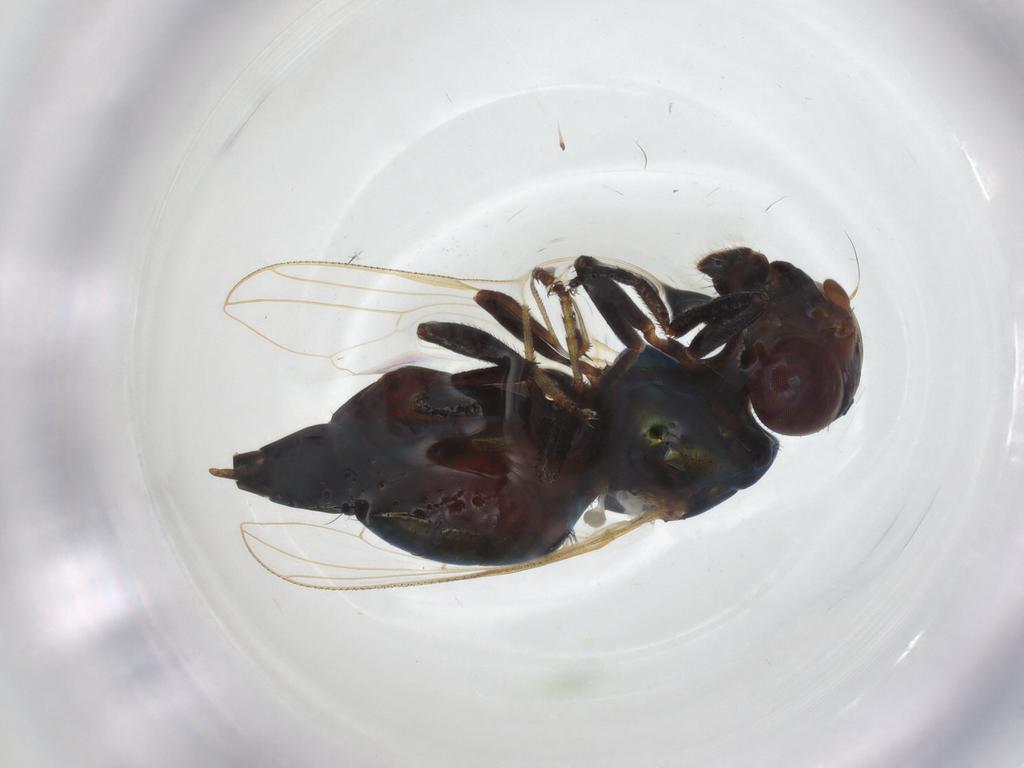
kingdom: Animalia
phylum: Arthropoda
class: Insecta
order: Diptera
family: Ulidiidae
